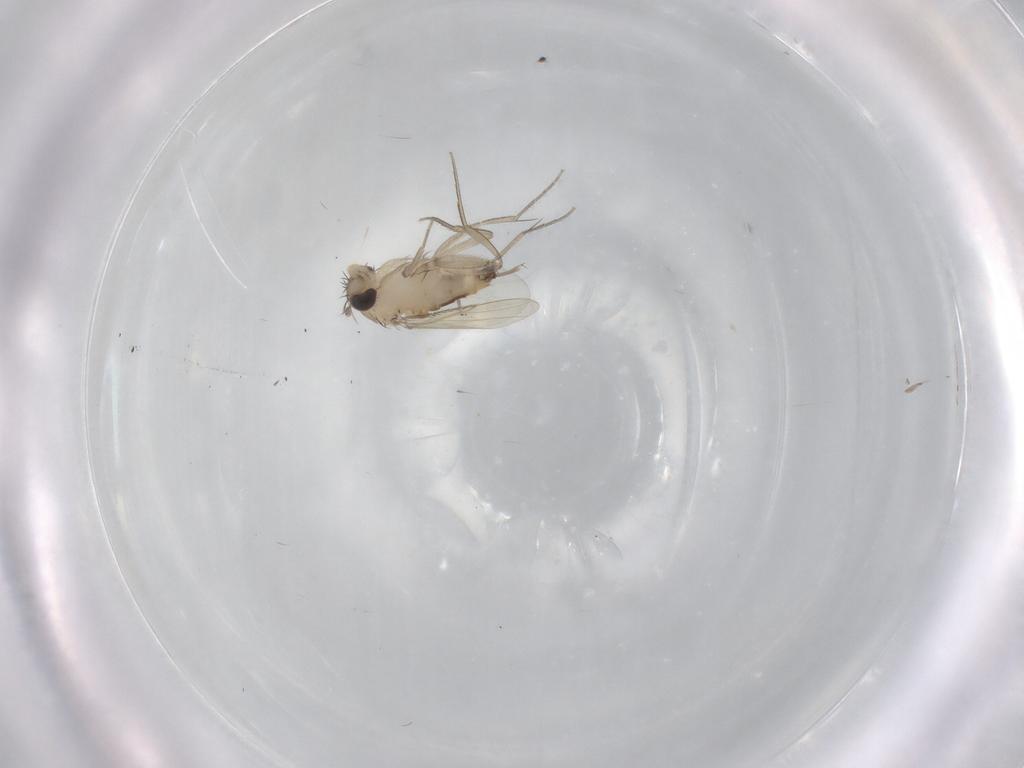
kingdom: Animalia
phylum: Arthropoda
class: Insecta
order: Diptera
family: Phoridae
